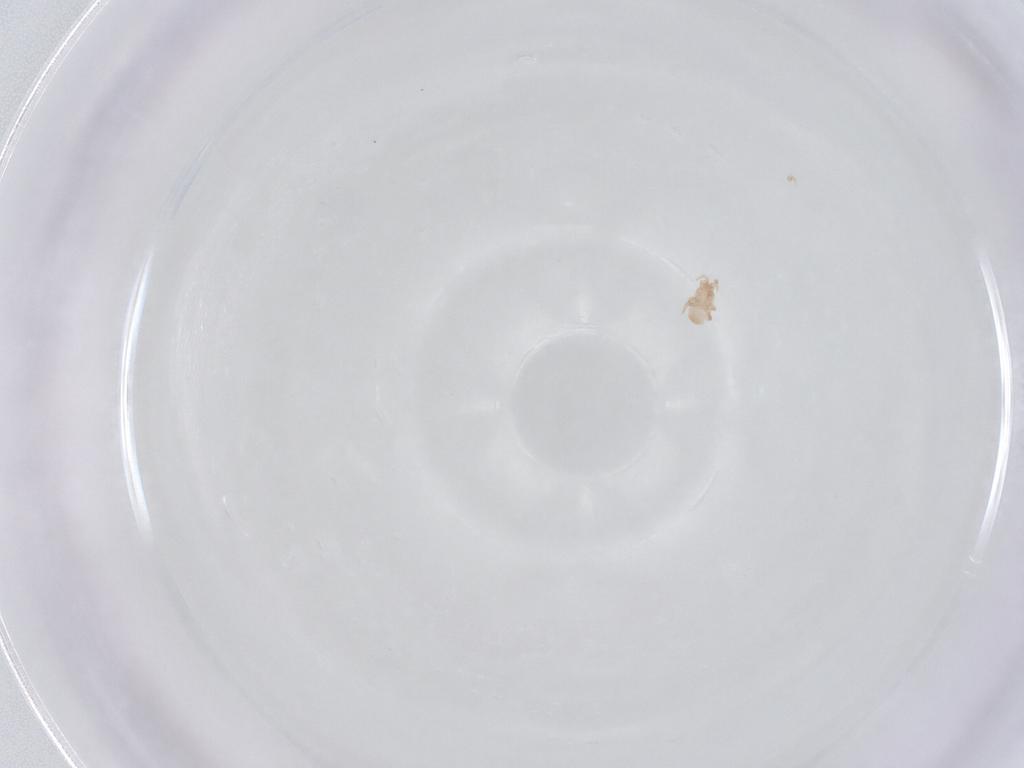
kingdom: Animalia
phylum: Arthropoda
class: Arachnida
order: Mesostigmata
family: Digamasellidae
